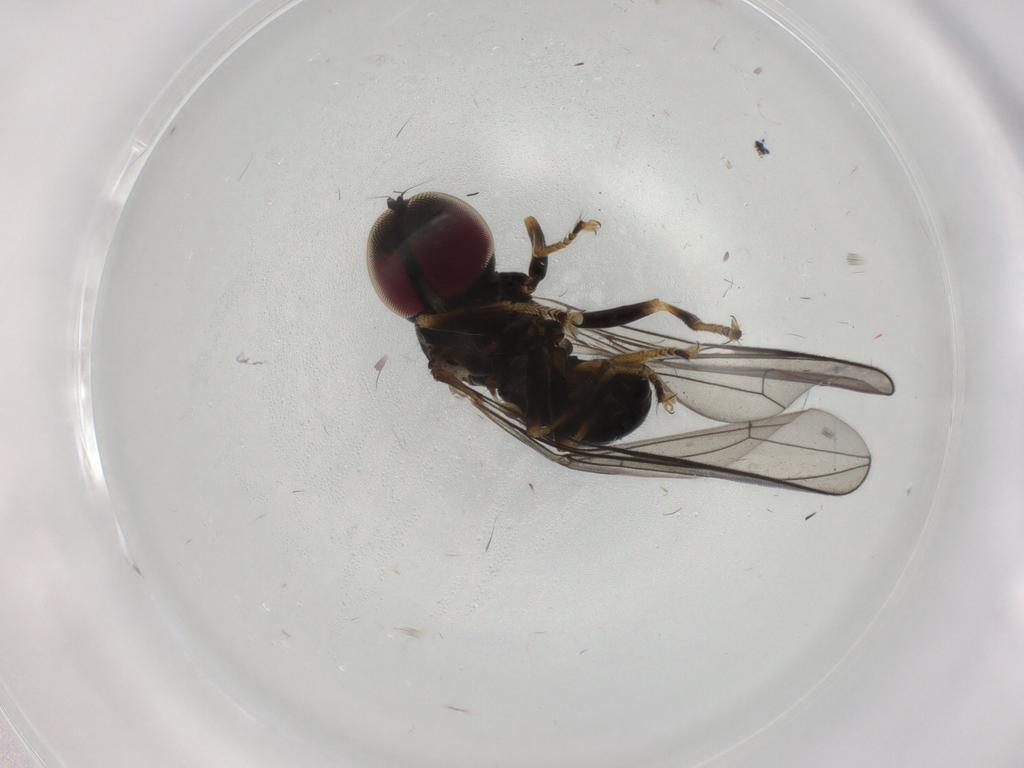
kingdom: Animalia
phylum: Arthropoda
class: Insecta
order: Diptera
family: Pipunculidae
